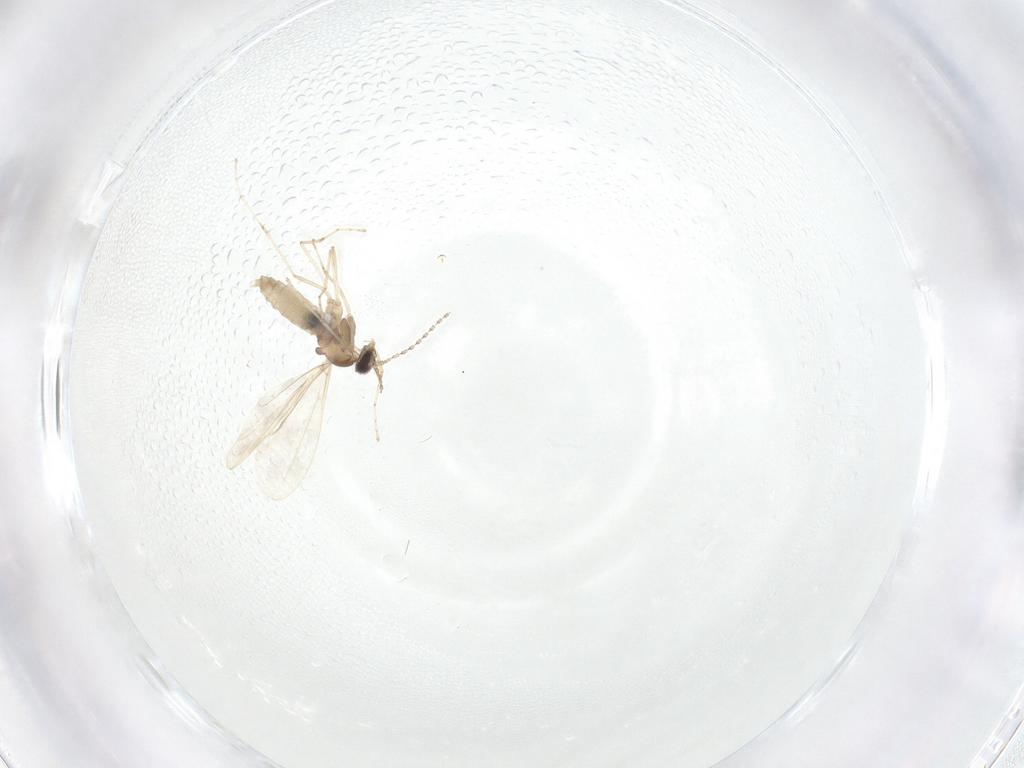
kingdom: Animalia
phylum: Arthropoda
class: Insecta
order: Diptera
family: Cecidomyiidae
